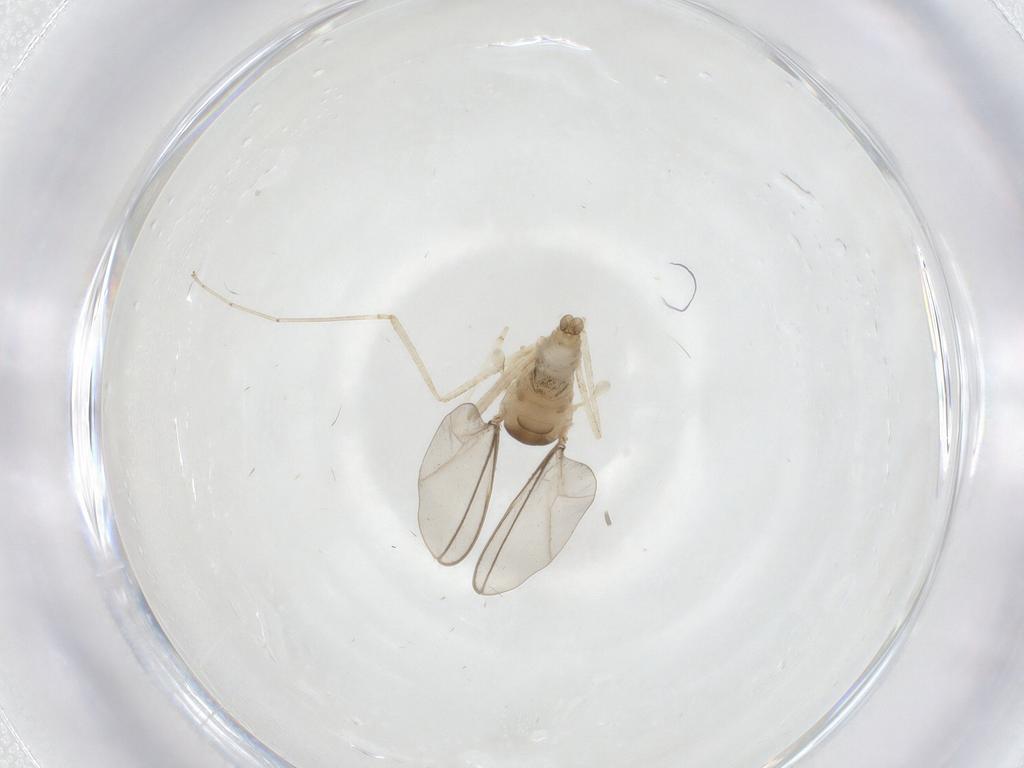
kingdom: Animalia
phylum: Arthropoda
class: Insecta
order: Diptera
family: Cecidomyiidae
